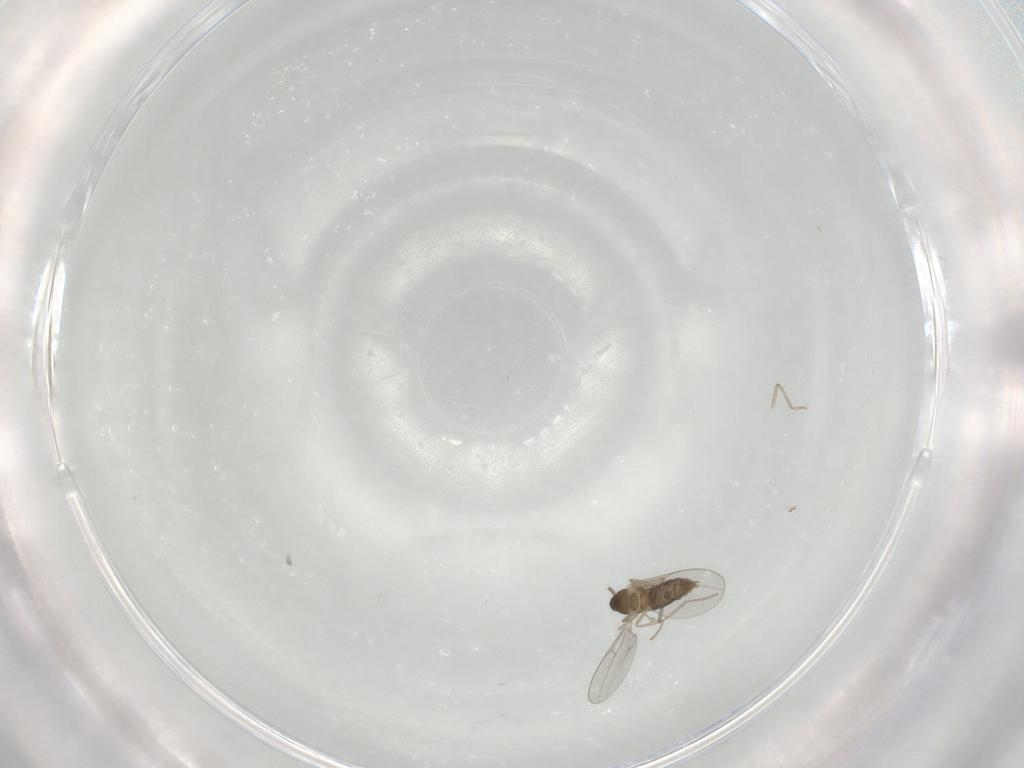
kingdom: Animalia
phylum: Arthropoda
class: Insecta
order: Diptera
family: Cecidomyiidae
